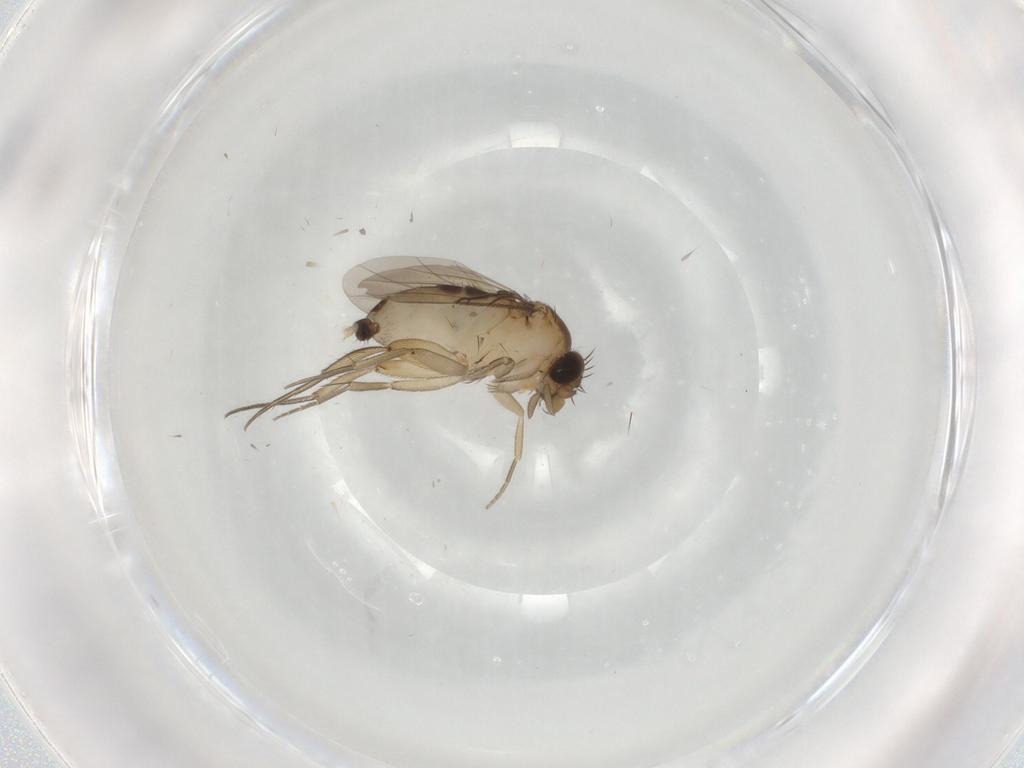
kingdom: Animalia
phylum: Arthropoda
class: Insecta
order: Diptera
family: Phoridae
